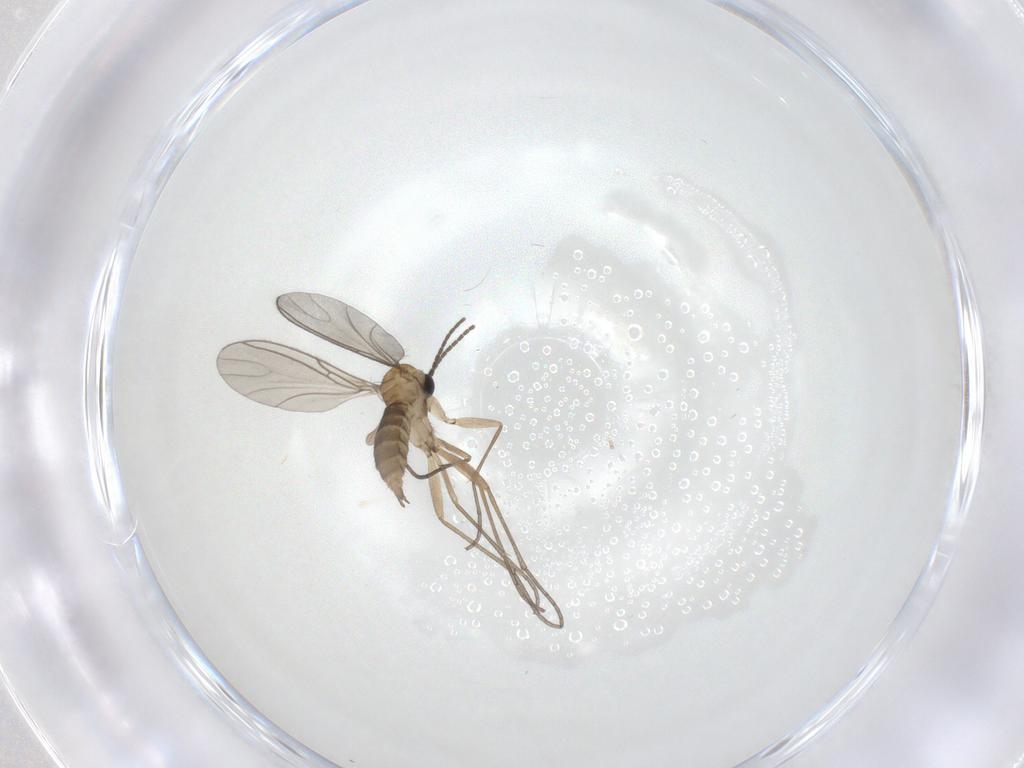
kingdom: Animalia
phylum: Arthropoda
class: Insecta
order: Diptera
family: Sciaridae
